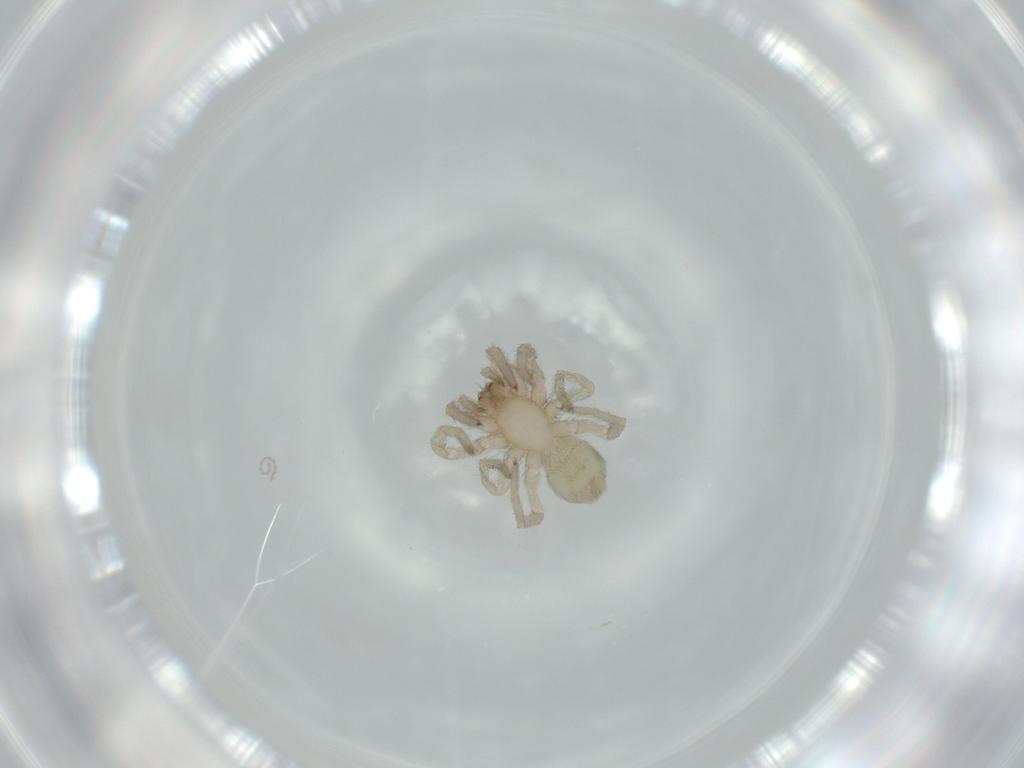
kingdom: Animalia
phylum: Arthropoda
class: Arachnida
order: Araneae
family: Gnaphosidae
